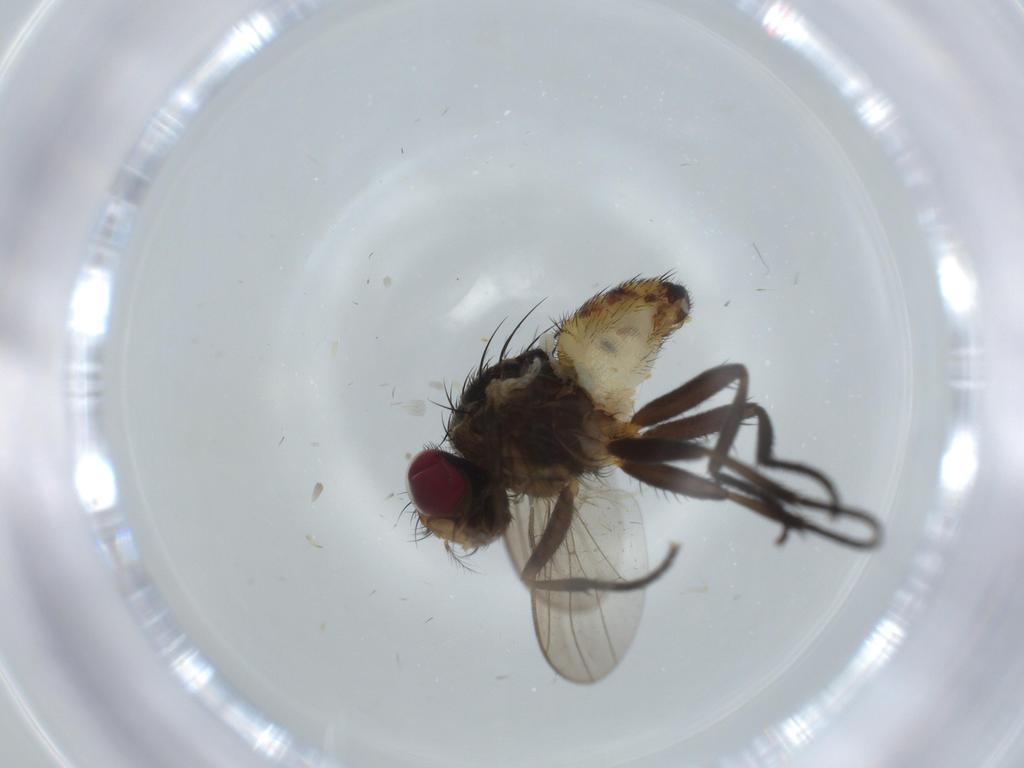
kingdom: Animalia
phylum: Arthropoda
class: Insecta
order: Diptera
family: Anthomyiidae
